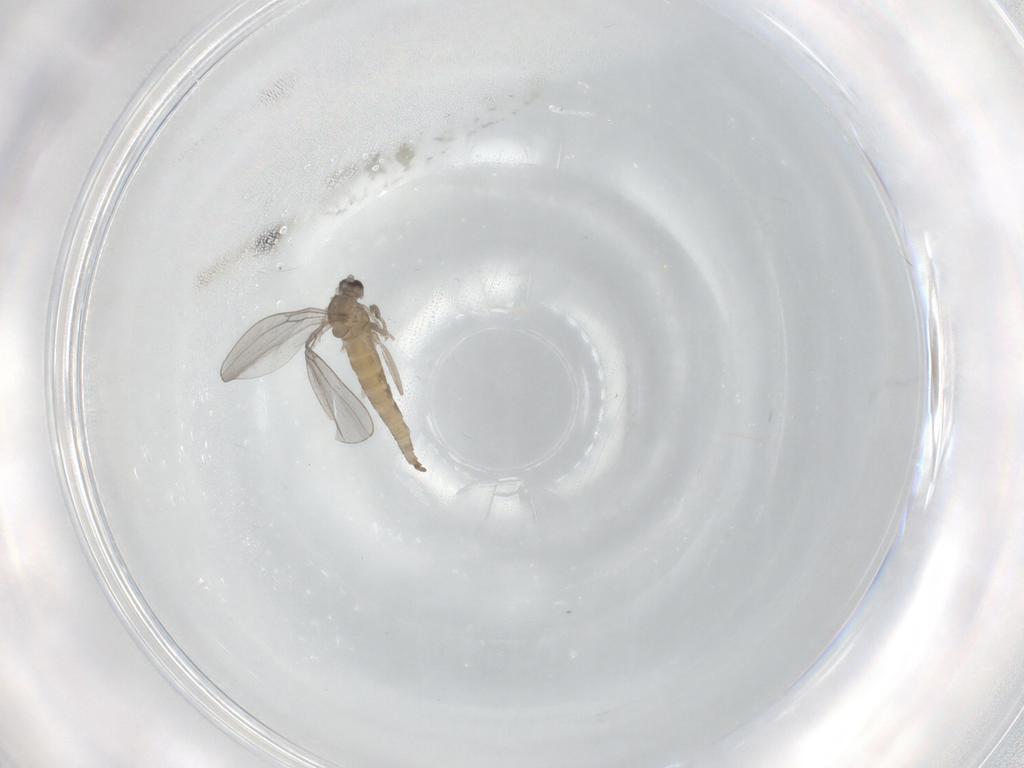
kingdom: Animalia
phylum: Arthropoda
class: Insecta
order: Diptera
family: Cecidomyiidae
